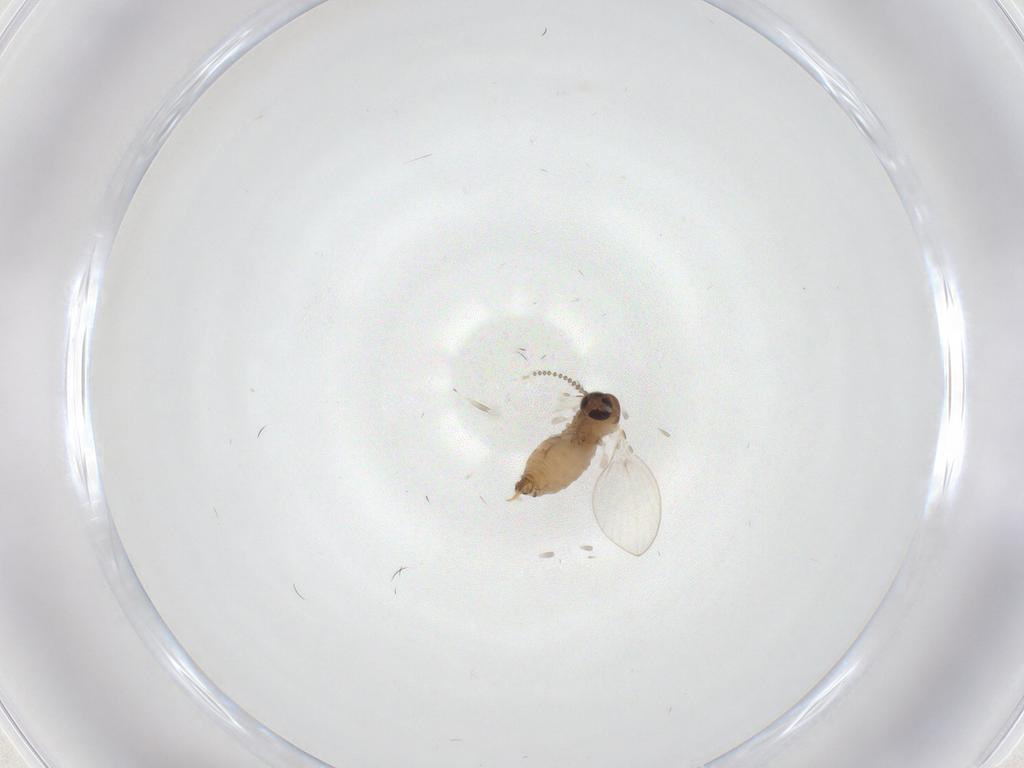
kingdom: Animalia
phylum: Arthropoda
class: Insecta
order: Diptera
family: Psychodidae
